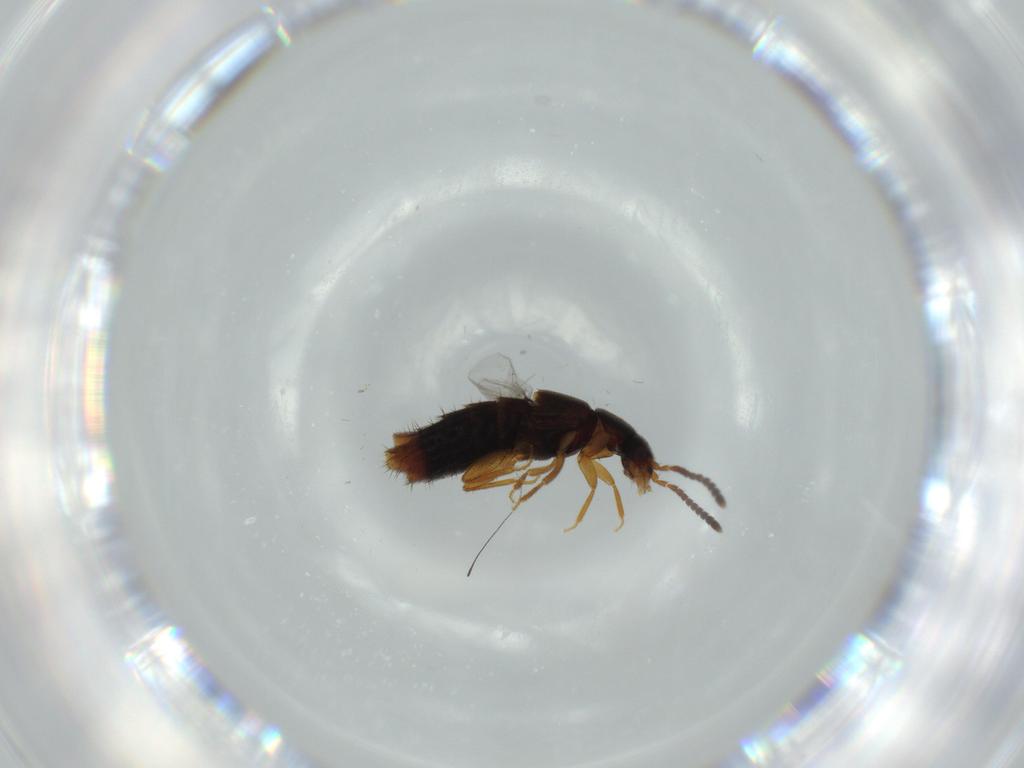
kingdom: Animalia
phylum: Arthropoda
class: Insecta
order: Coleoptera
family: Staphylinidae
